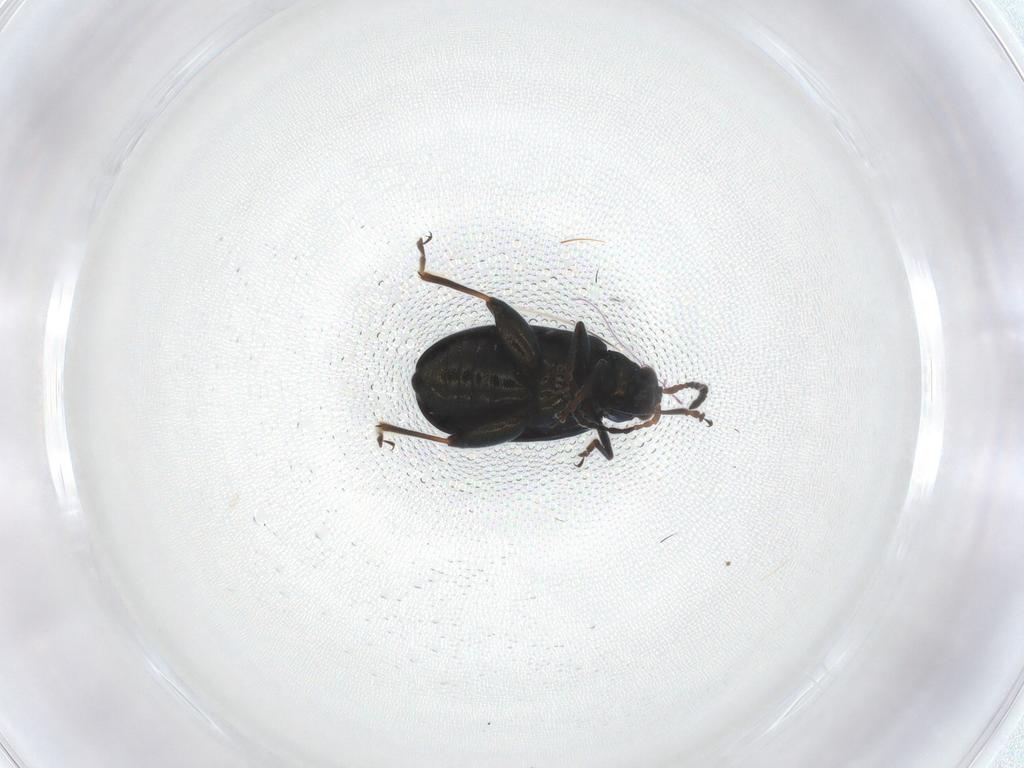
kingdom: Animalia
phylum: Arthropoda
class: Insecta
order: Coleoptera
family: Chrysomelidae
